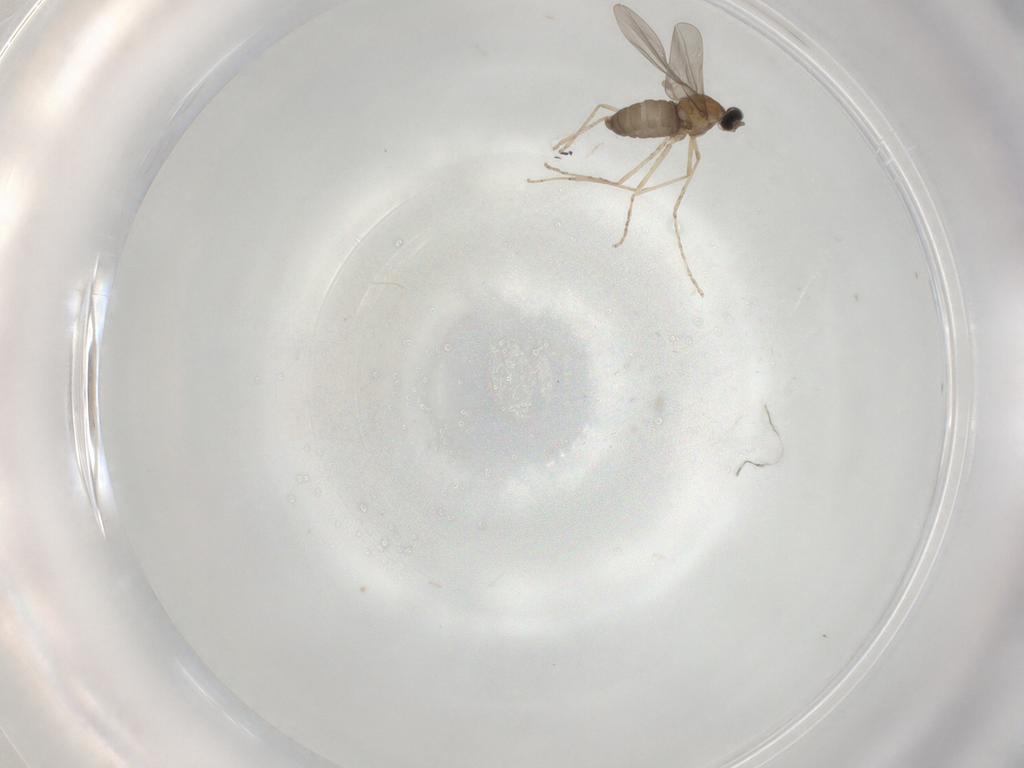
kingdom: Animalia
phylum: Arthropoda
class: Insecta
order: Diptera
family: Cecidomyiidae
